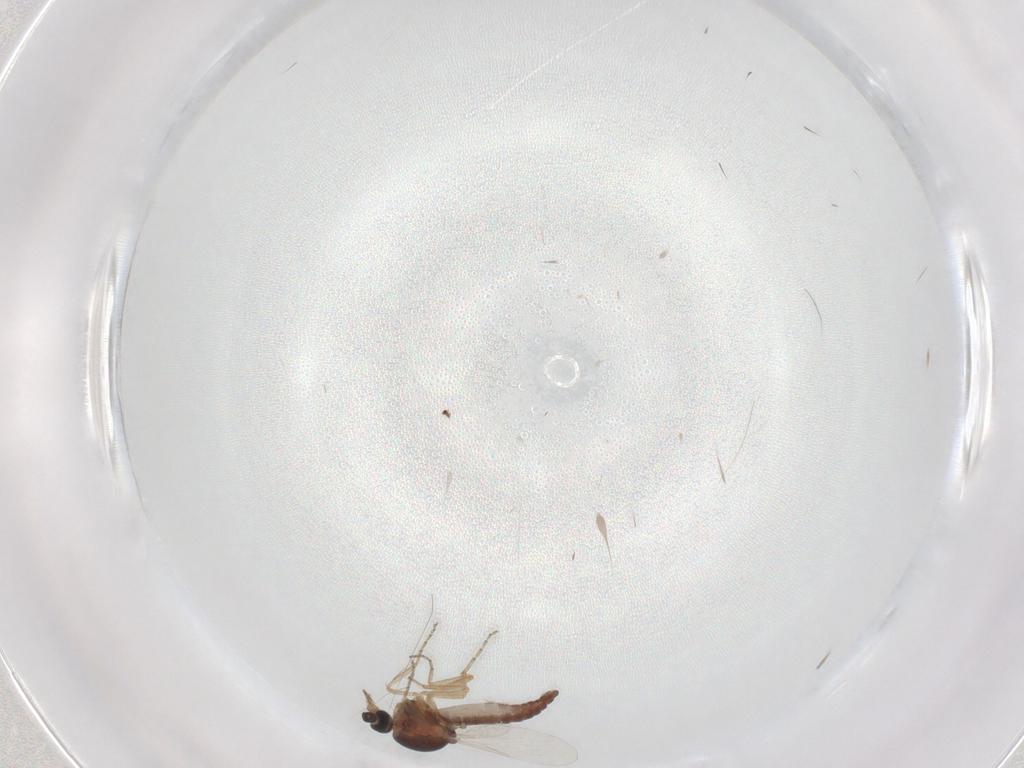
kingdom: Animalia
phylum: Arthropoda
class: Insecta
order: Diptera
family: Ceratopogonidae
